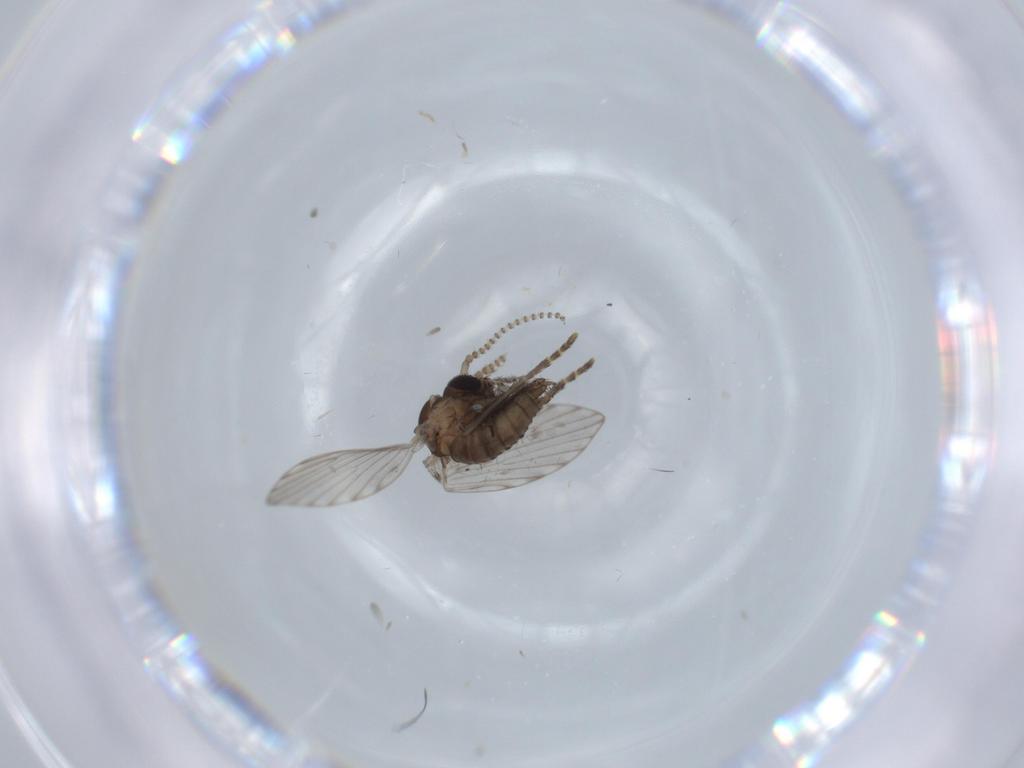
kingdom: Animalia
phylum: Arthropoda
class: Insecta
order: Diptera
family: Psychodidae
